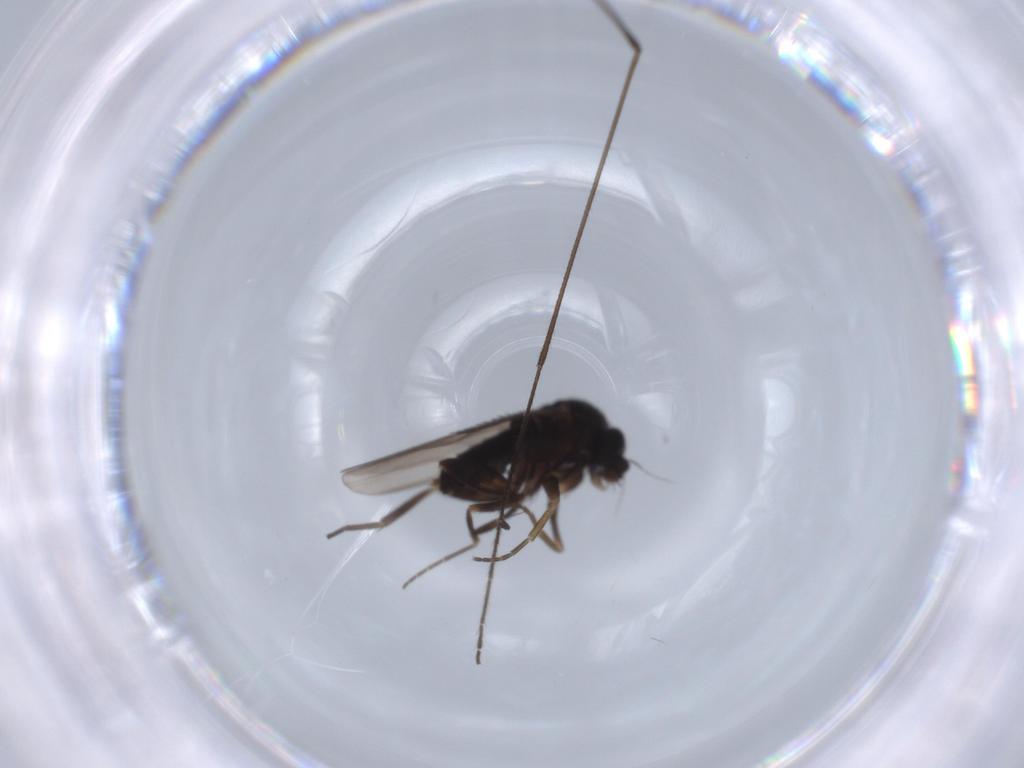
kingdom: Animalia
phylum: Arthropoda
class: Insecta
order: Diptera
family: Phoridae
